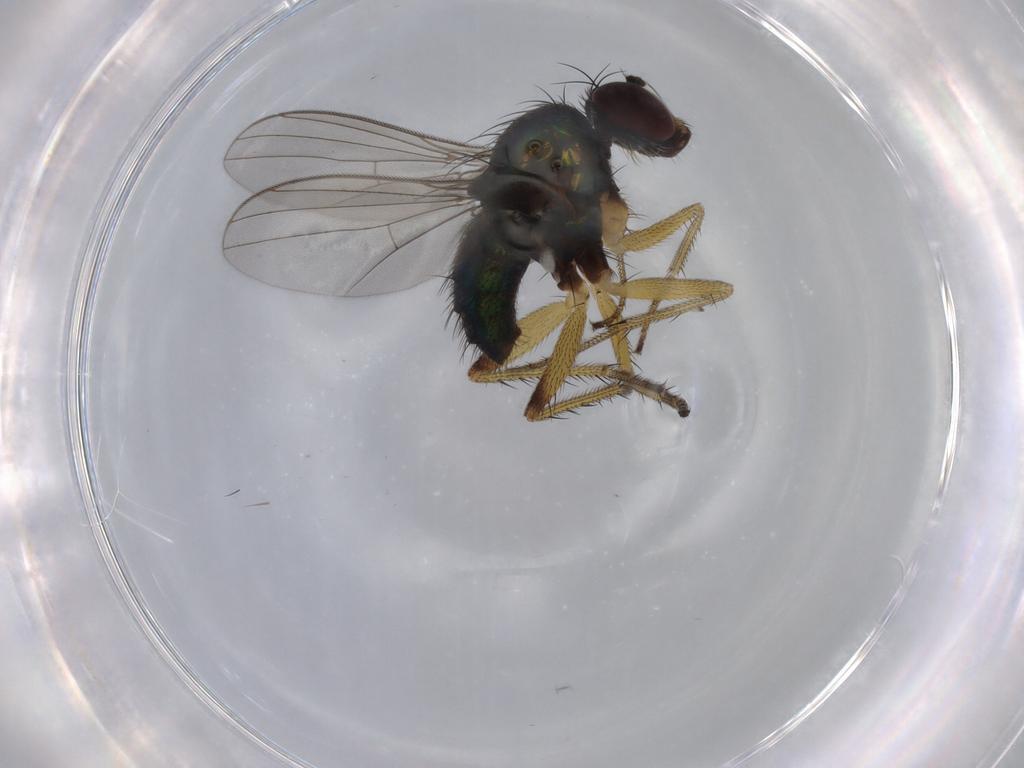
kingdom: Animalia
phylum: Arthropoda
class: Insecta
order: Diptera
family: Dolichopodidae
